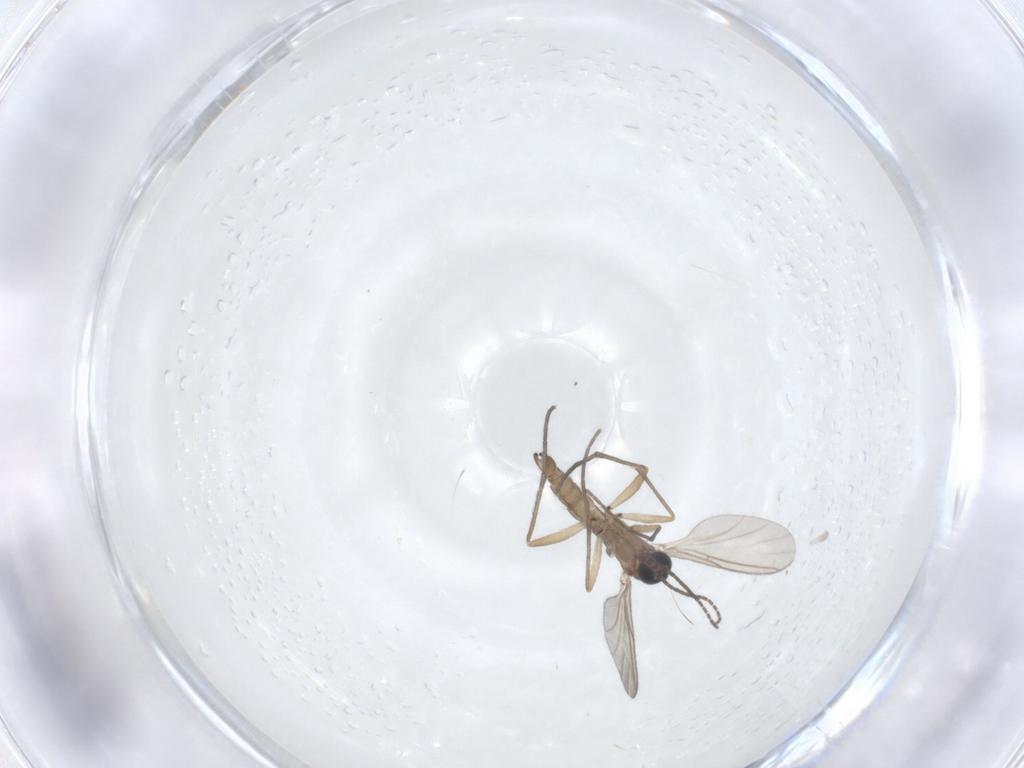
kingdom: Animalia
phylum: Arthropoda
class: Insecta
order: Diptera
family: Sciaridae
